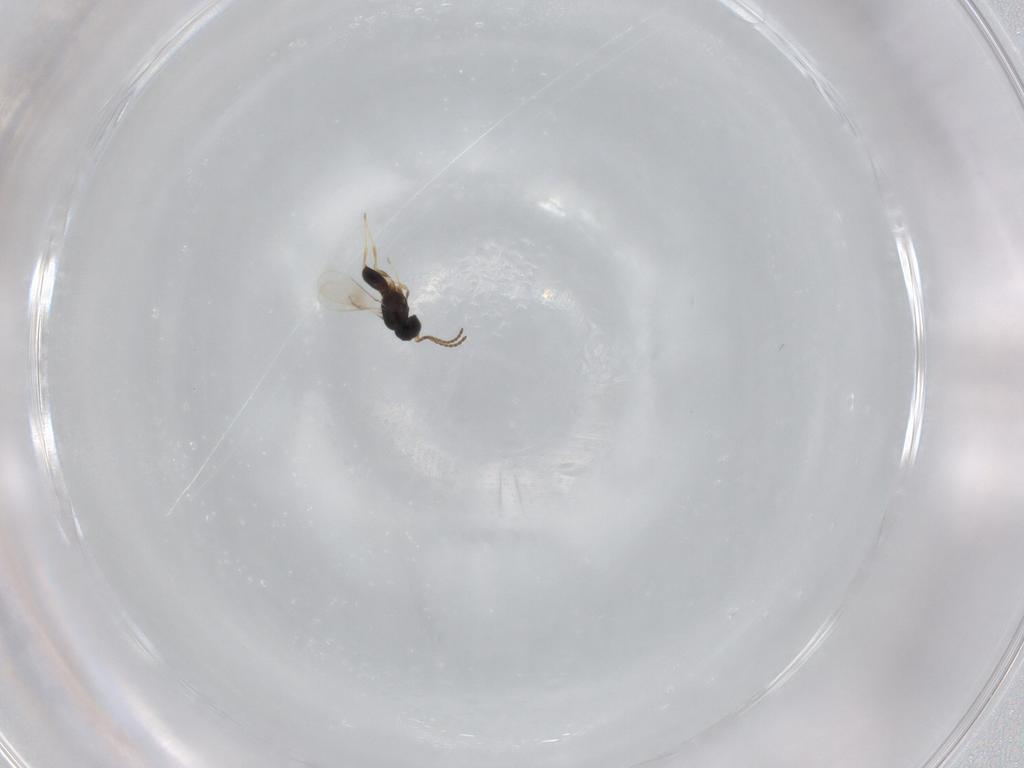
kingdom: Animalia
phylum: Arthropoda
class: Insecta
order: Hymenoptera
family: Scelionidae
